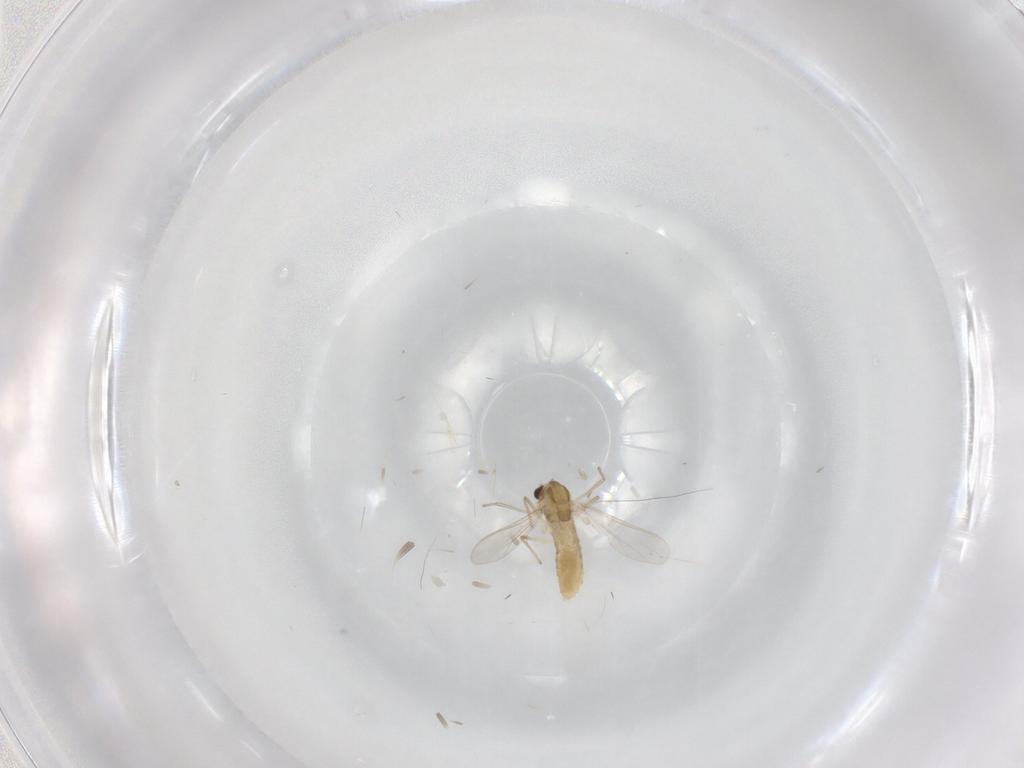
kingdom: Animalia
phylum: Arthropoda
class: Insecta
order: Diptera
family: Chironomidae
